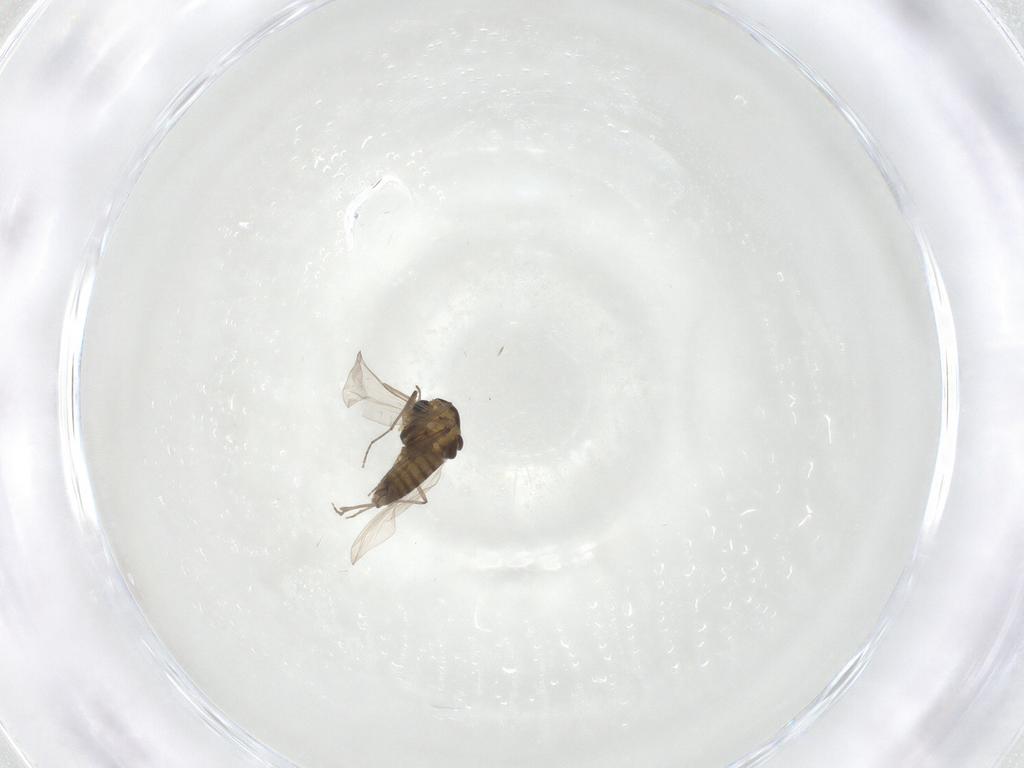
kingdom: Animalia
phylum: Arthropoda
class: Insecta
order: Diptera
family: Chironomidae
